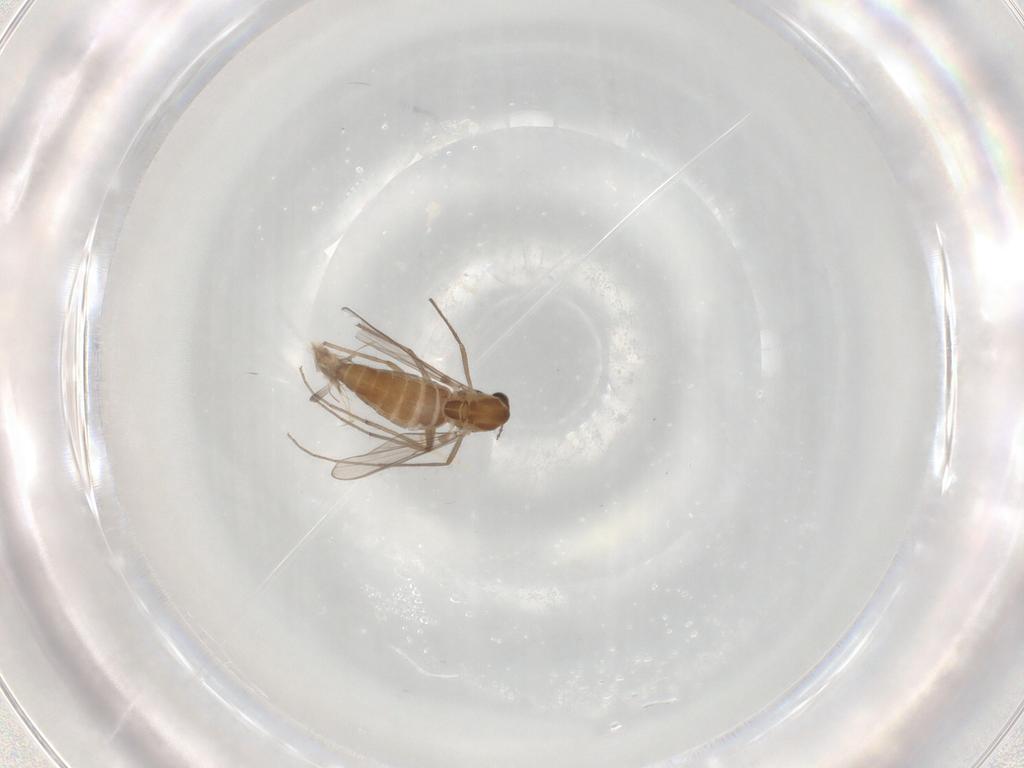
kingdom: Animalia
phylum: Arthropoda
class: Insecta
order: Diptera
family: Chironomidae
